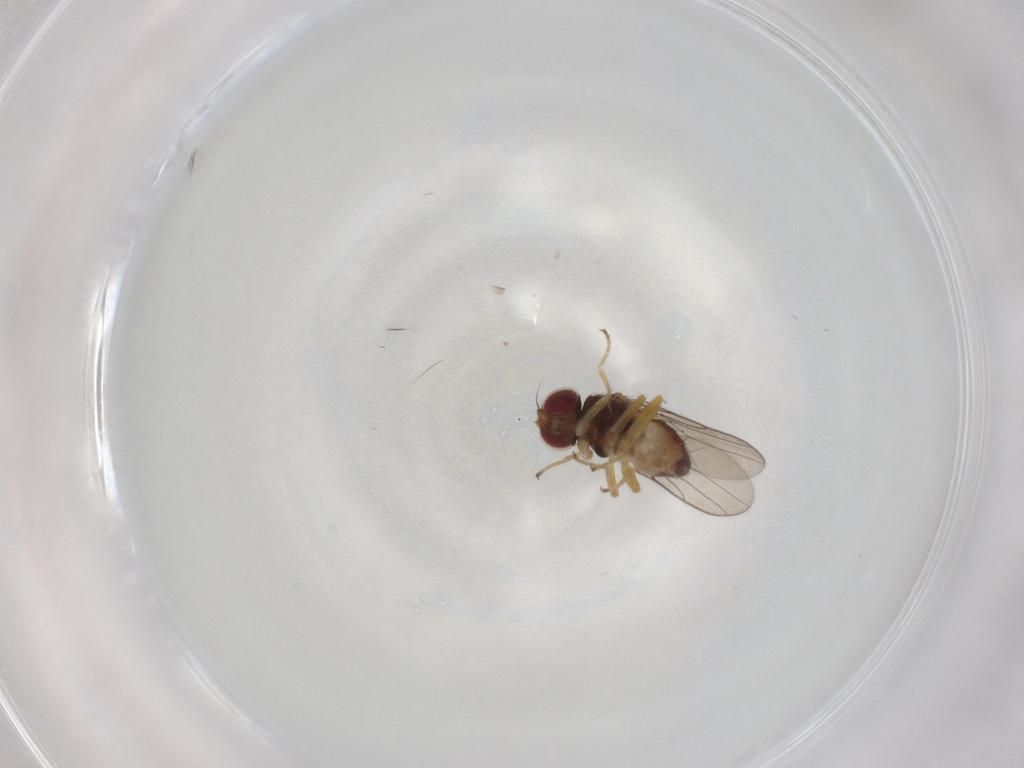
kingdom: Animalia
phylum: Arthropoda
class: Insecta
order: Diptera
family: Chloropidae
